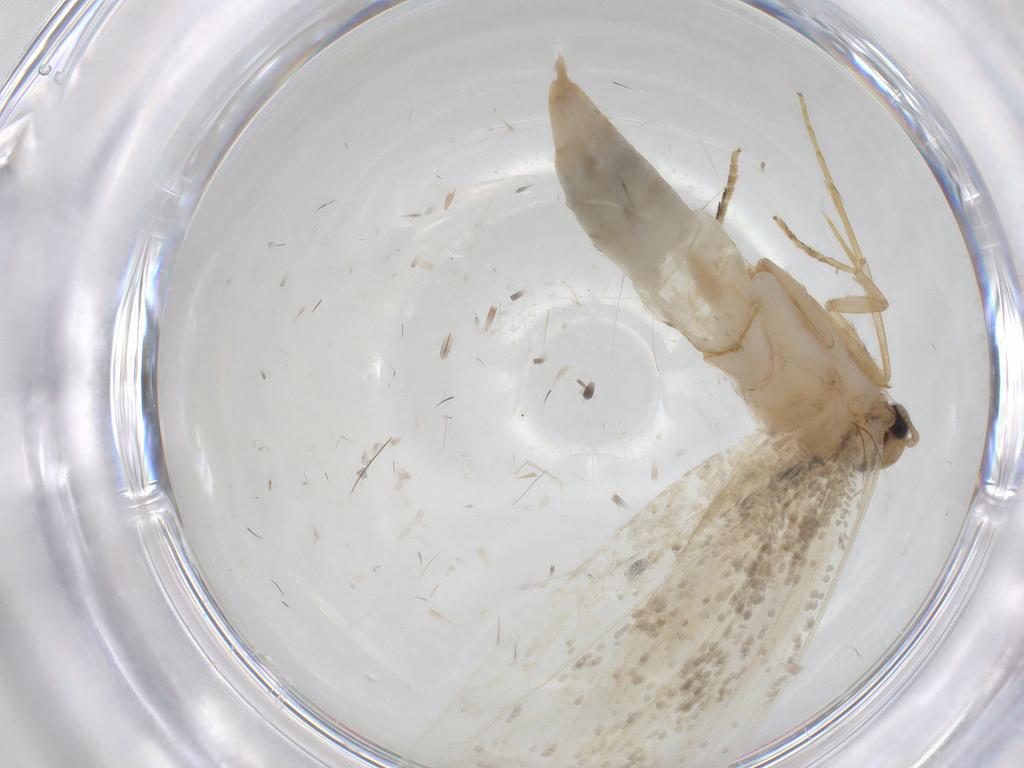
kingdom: Animalia
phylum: Arthropoda
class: Insecta
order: Lepidoptera
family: Tineidae
